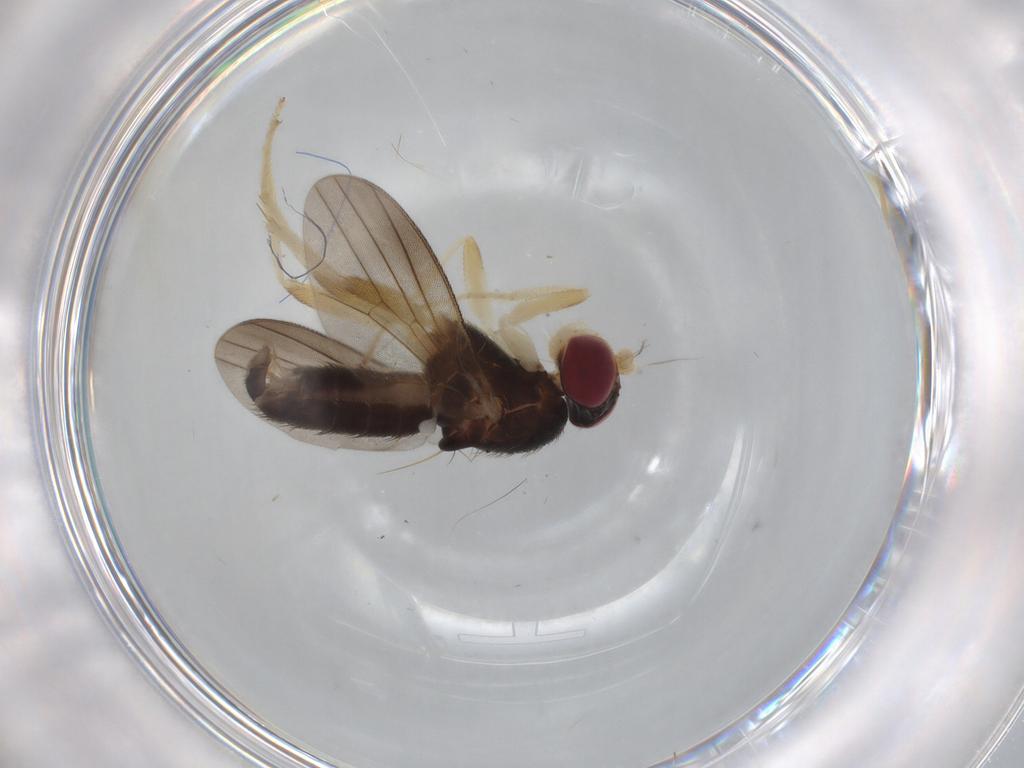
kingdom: Animalia
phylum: Arthropoda
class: Insecta
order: Diptera
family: Clusiidae
